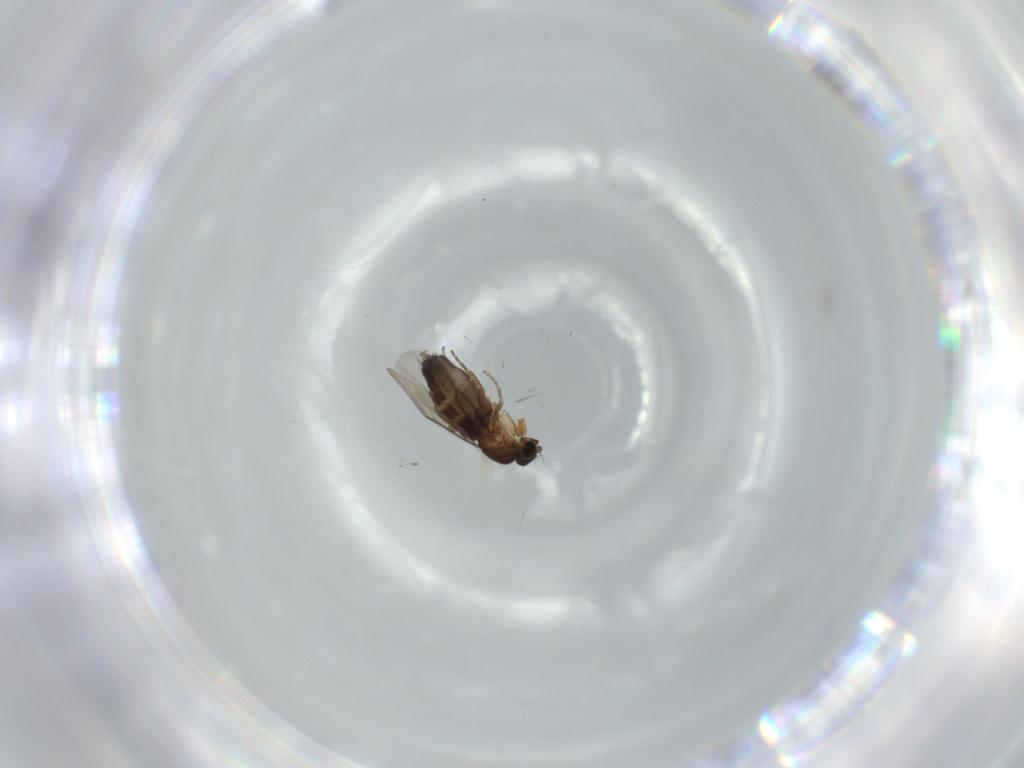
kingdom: Animalia
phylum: Arthropoda
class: Insecta
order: Diptera
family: Phoridae
